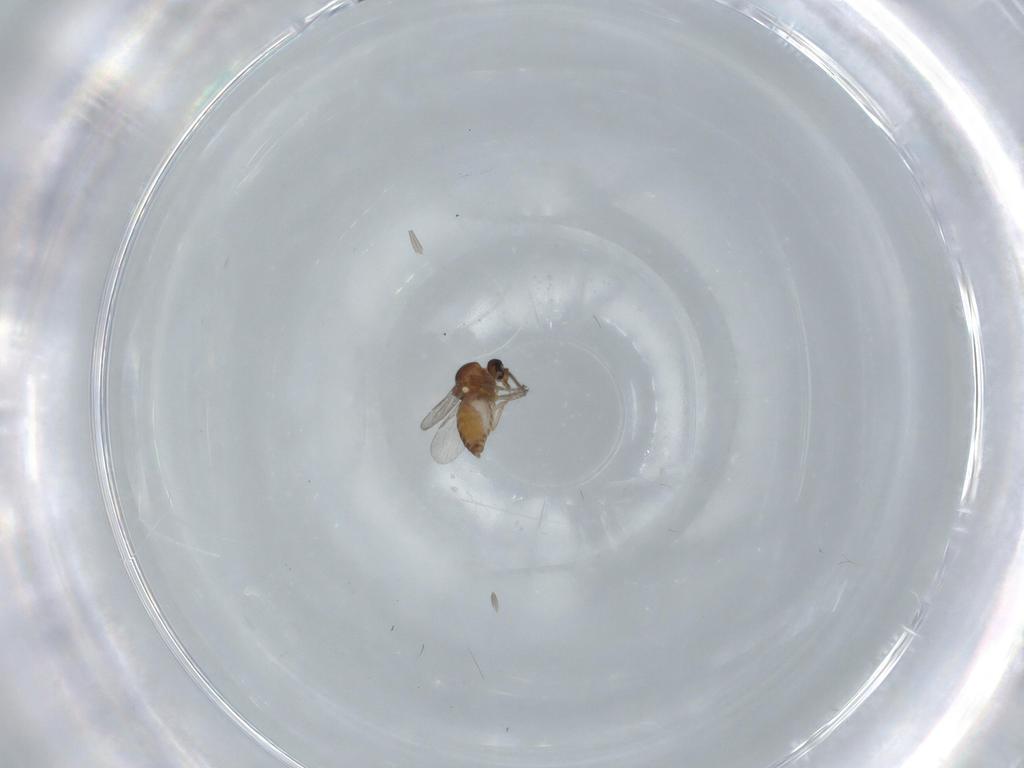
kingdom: Animalia
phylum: Arthropoda
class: Insecta
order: Diptera
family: Ceratopogonidae
